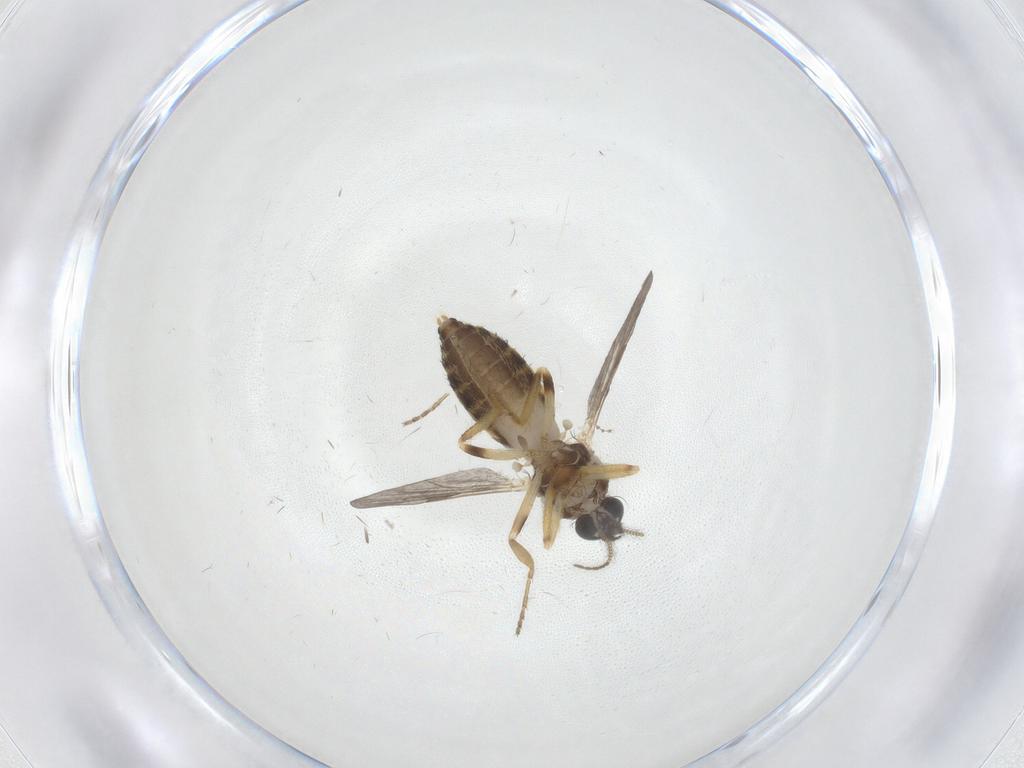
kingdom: Animalia
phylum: Arthropoda
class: Insecta
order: Diptera
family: Ceratopogonidae
